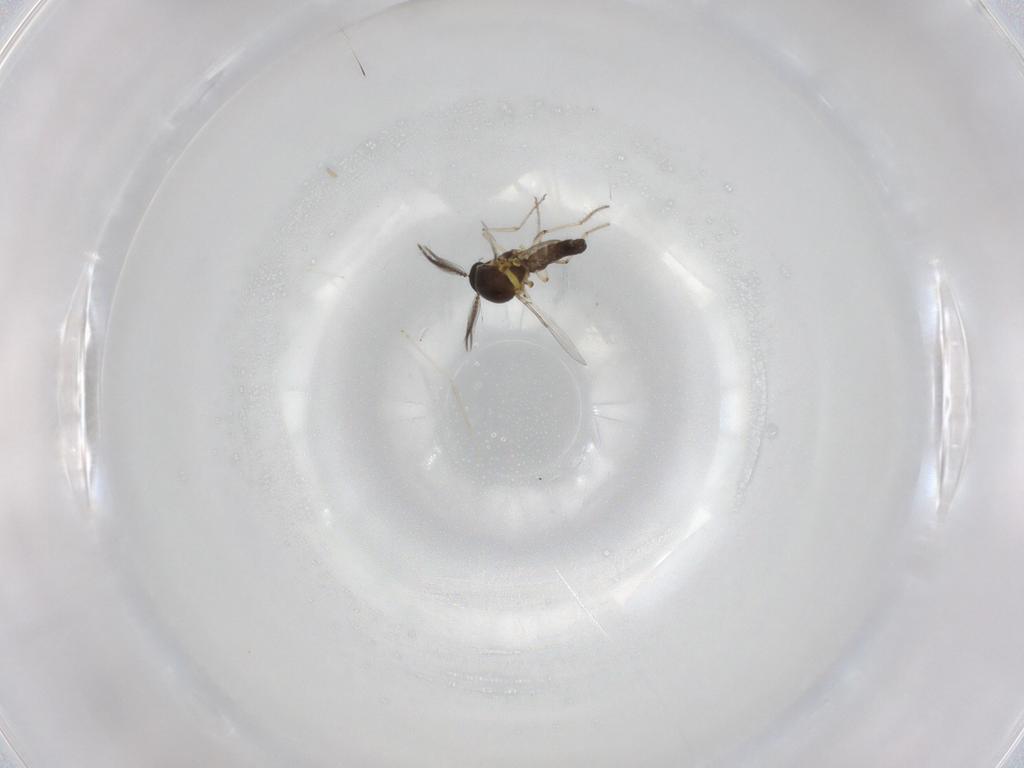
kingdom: Animalia
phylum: Arthropoda
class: Insecta
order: Diptera
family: Ceratopogonidae
